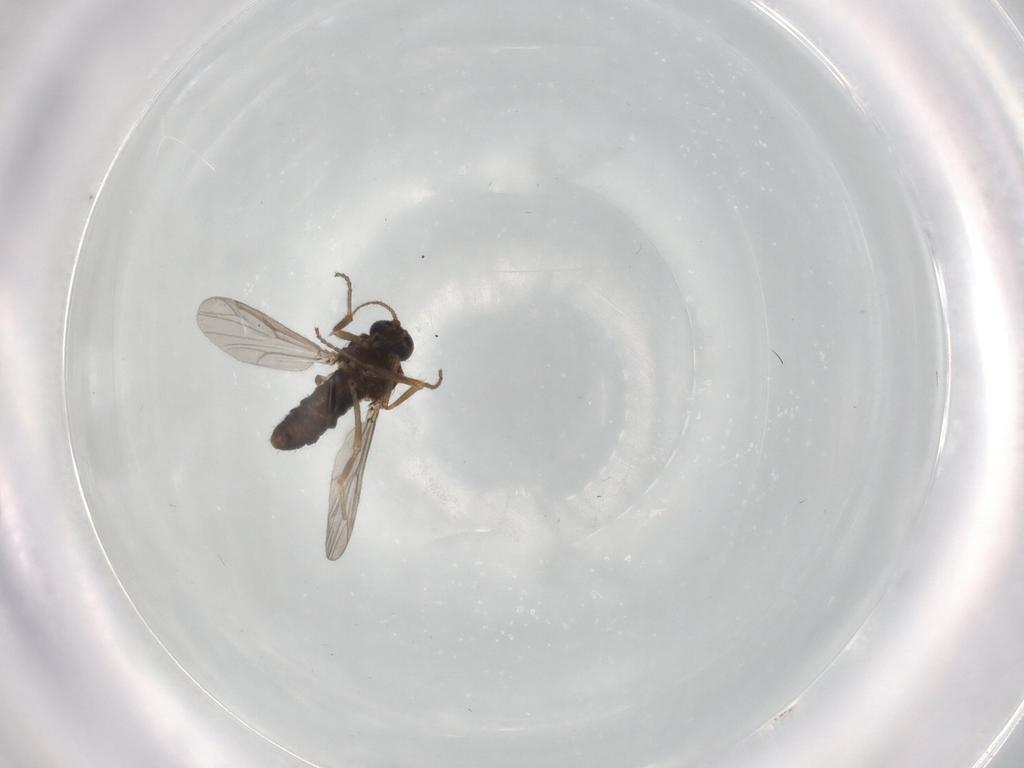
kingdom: Animalia
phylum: Arthropoda
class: Insecta
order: Diptera
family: Ceratopogonidae
